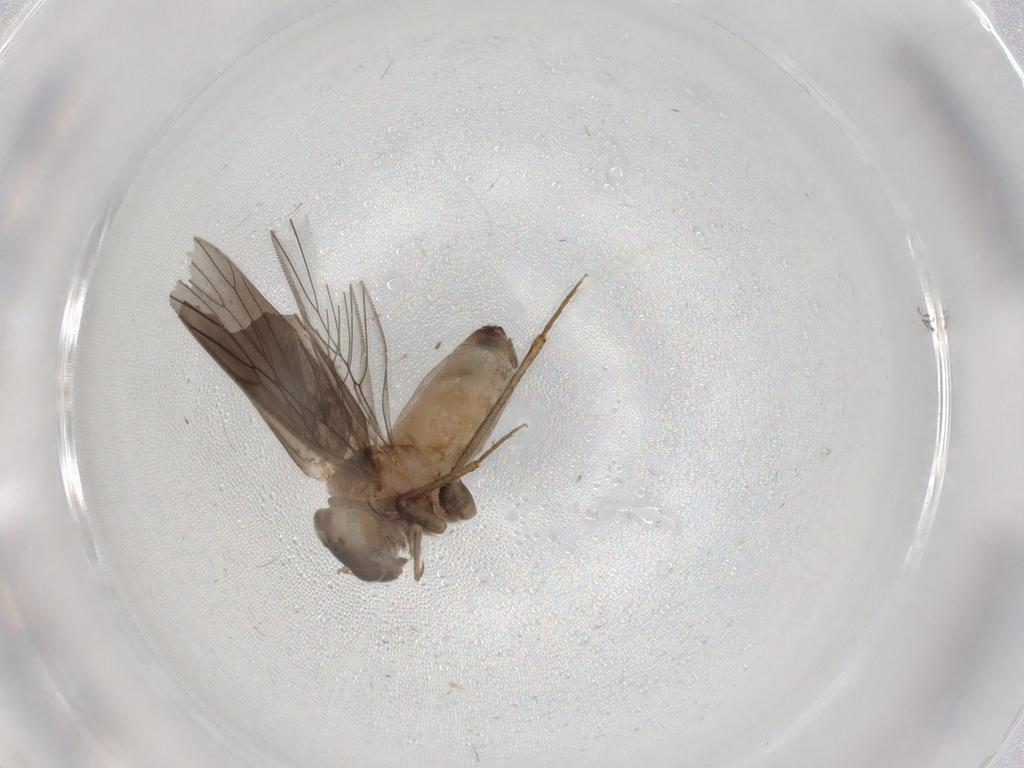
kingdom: Animalia
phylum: Arthropoda
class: Insecta
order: Psocodea
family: Lepidopsocidae
